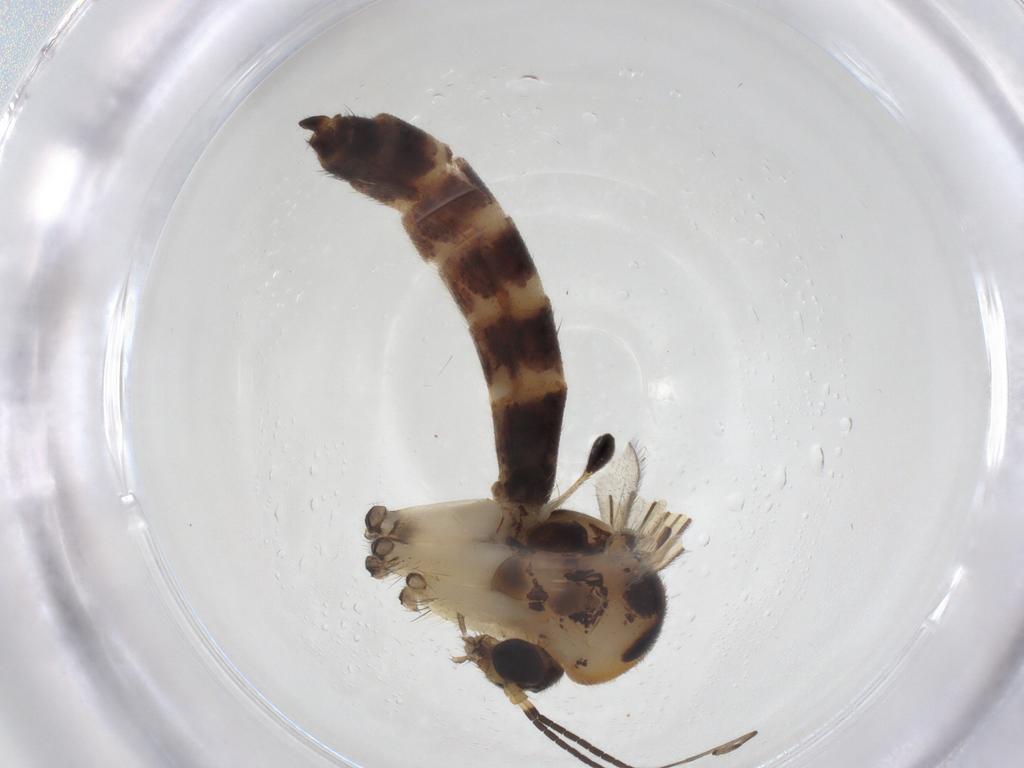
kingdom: Animalia
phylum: Arthropoda
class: Insecta
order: Diptera
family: Mycetophilidae
